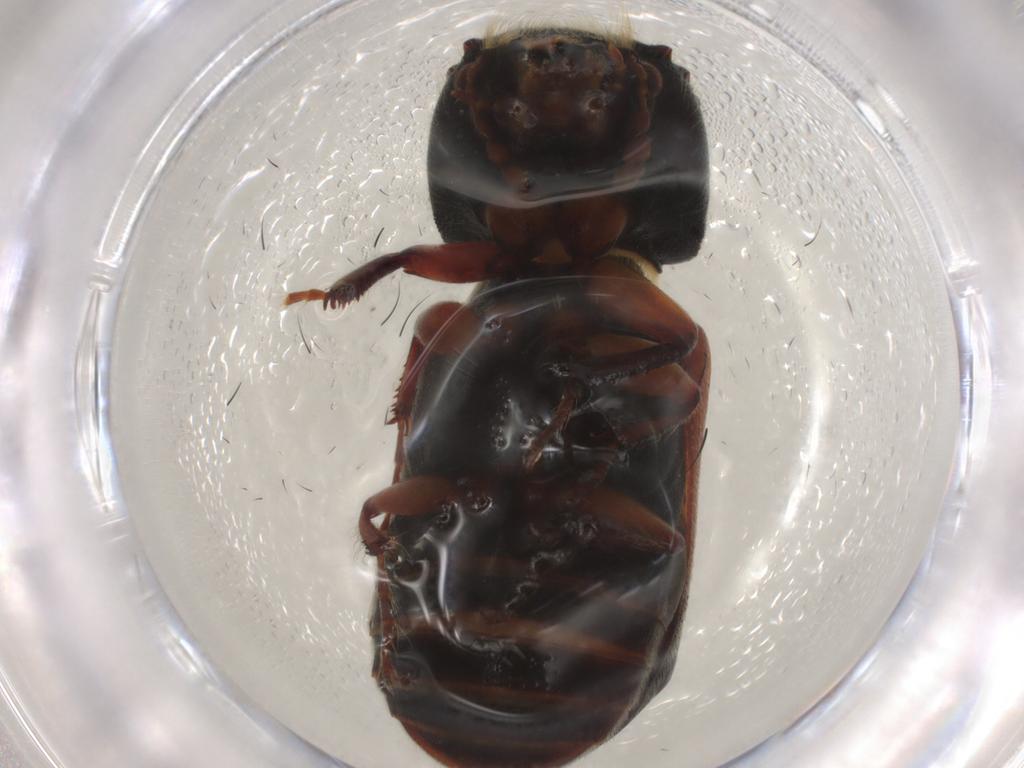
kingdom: Animalia
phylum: Arthropoda
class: Insecta
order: Coleoptera
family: Bostrichidae
